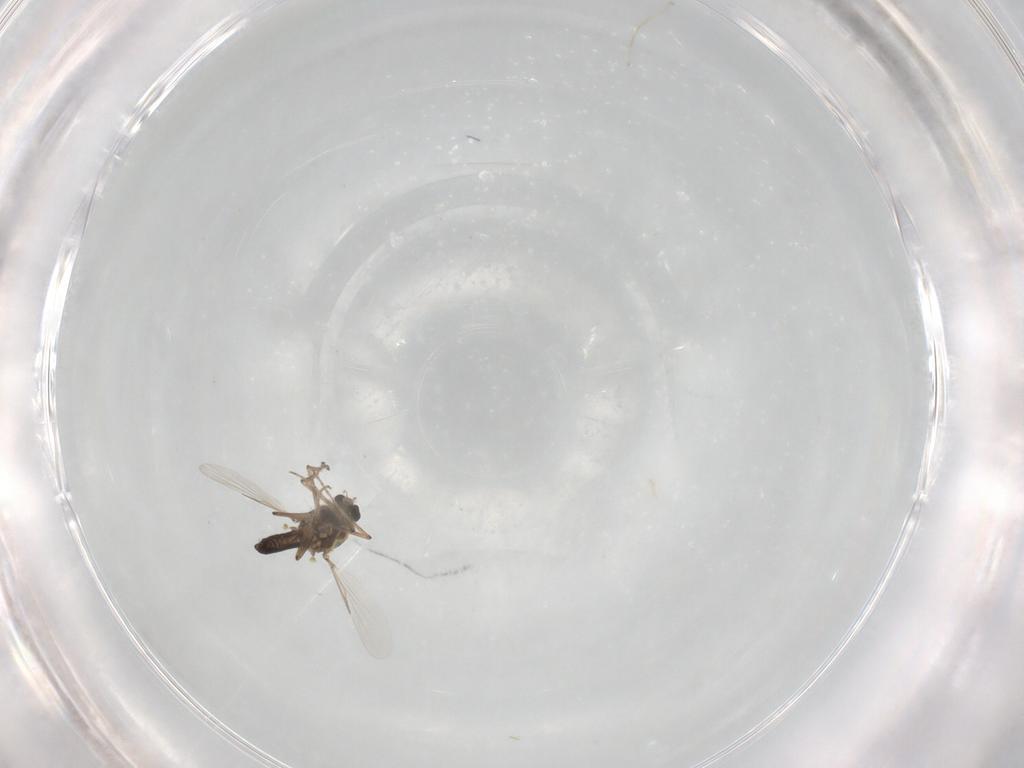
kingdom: Animalia
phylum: Arthropoda
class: Insecta
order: Diptera
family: Ceratopogonidae
